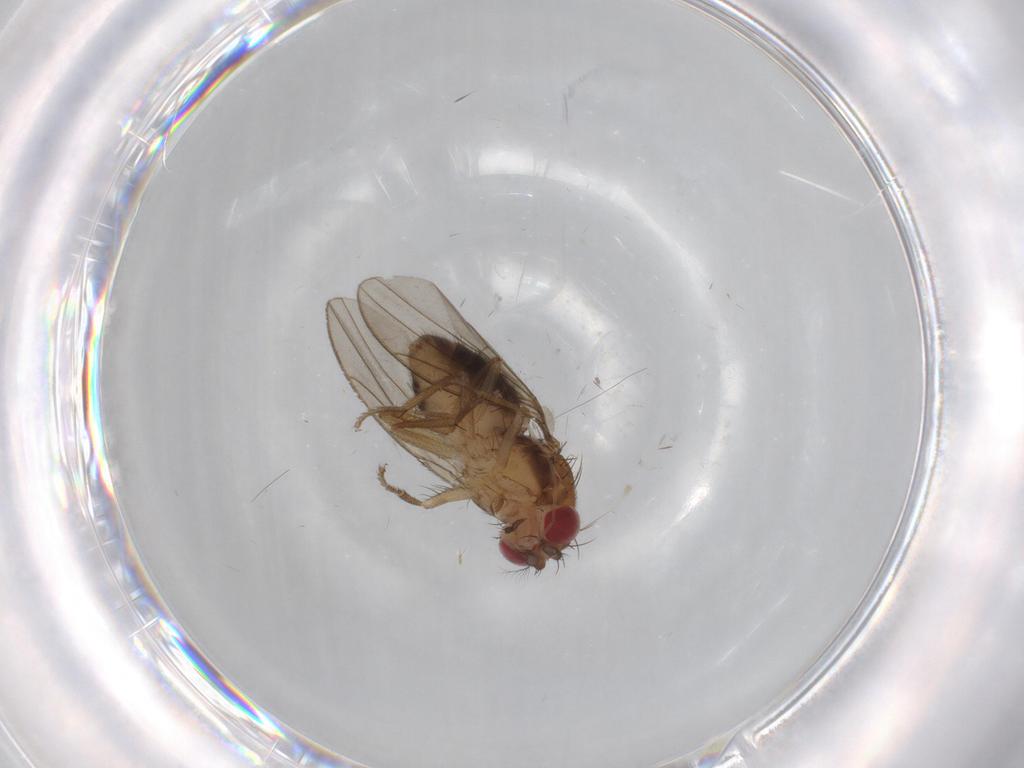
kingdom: Animalia
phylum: Arthropoda
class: Insecta
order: Diptera
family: Drosophilidae
